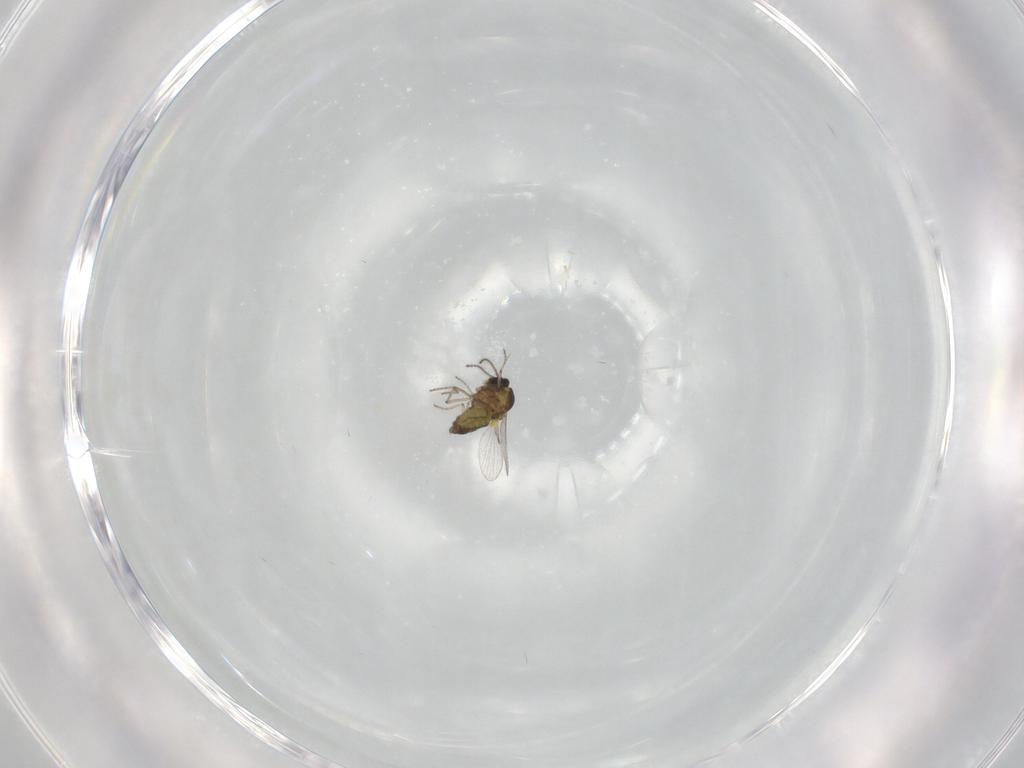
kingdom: Animalia
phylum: Arthropoda
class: Insecta
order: Diptera
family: Ceratopogonidae
